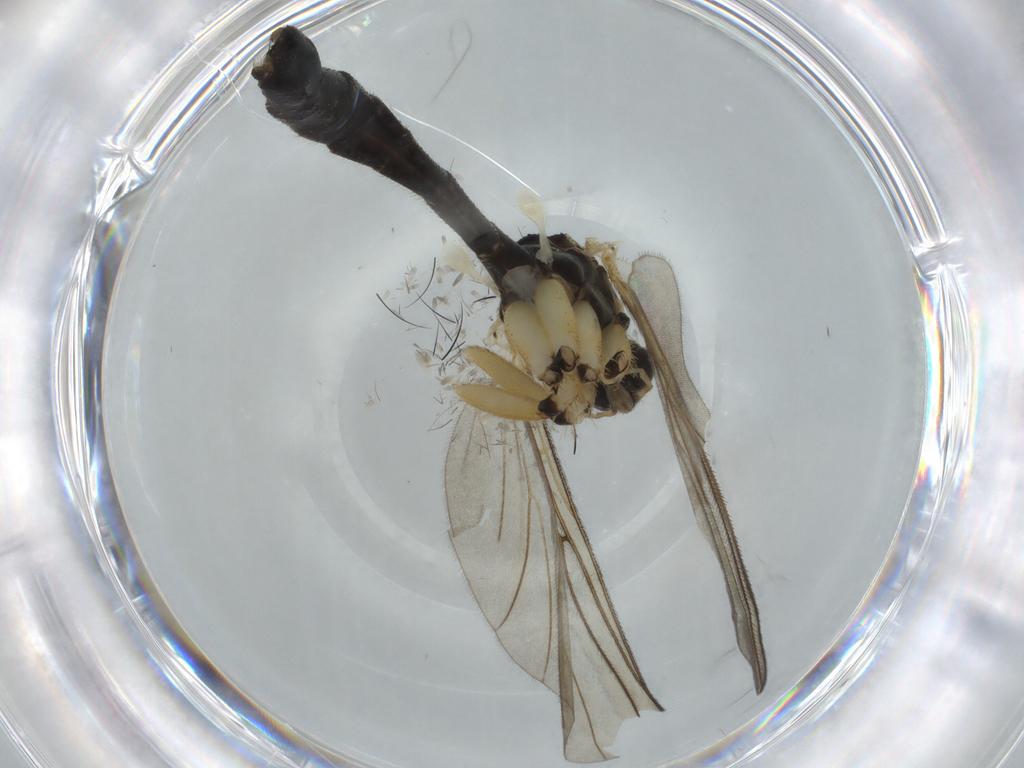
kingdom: Animalia
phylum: Arthropoda
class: Insecta
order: Diptera
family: Hybotidae
